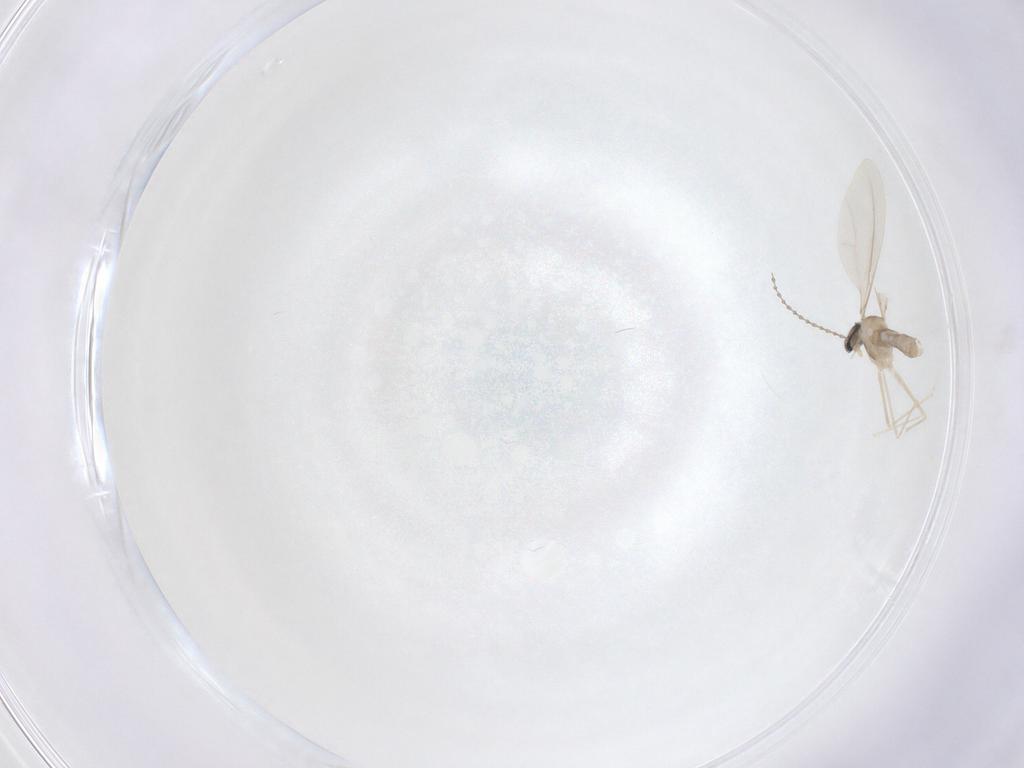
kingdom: Animalia
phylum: Arthropoda
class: Insecta
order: Diptera
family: Cecidomyiidae
